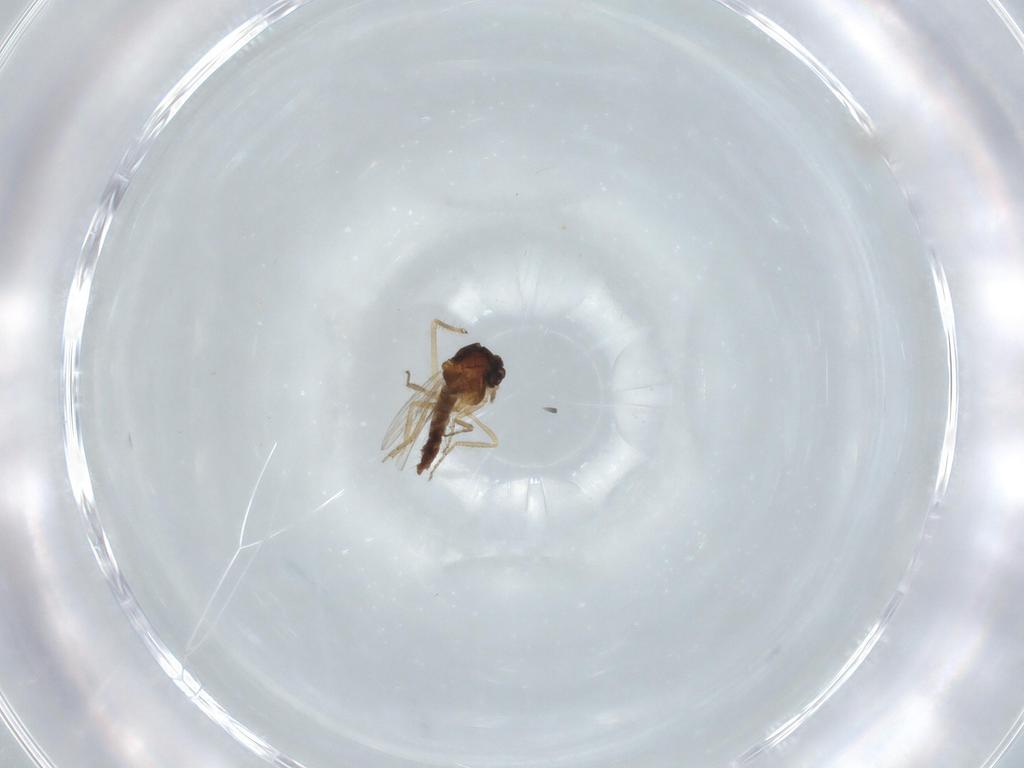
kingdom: Animalia
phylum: Arthropoda
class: Insecta
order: Diptera
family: Ceratopogonidae
